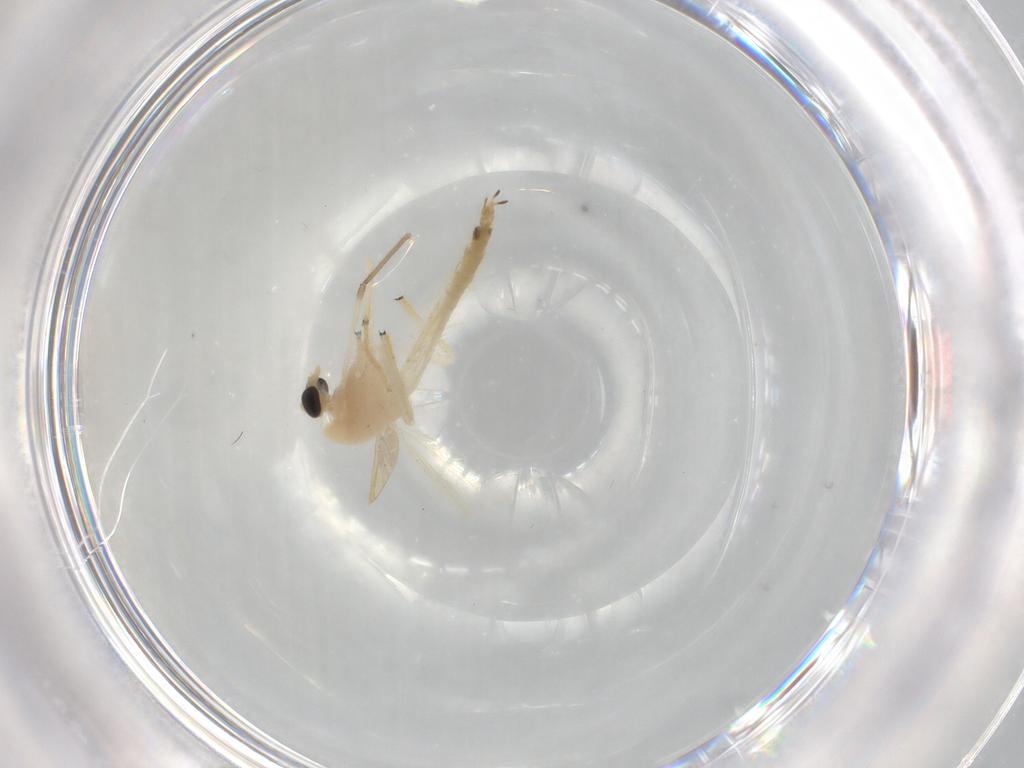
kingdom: Animalia
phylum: Arthropoda
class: Insecta
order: Diptera
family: Chironomidae
